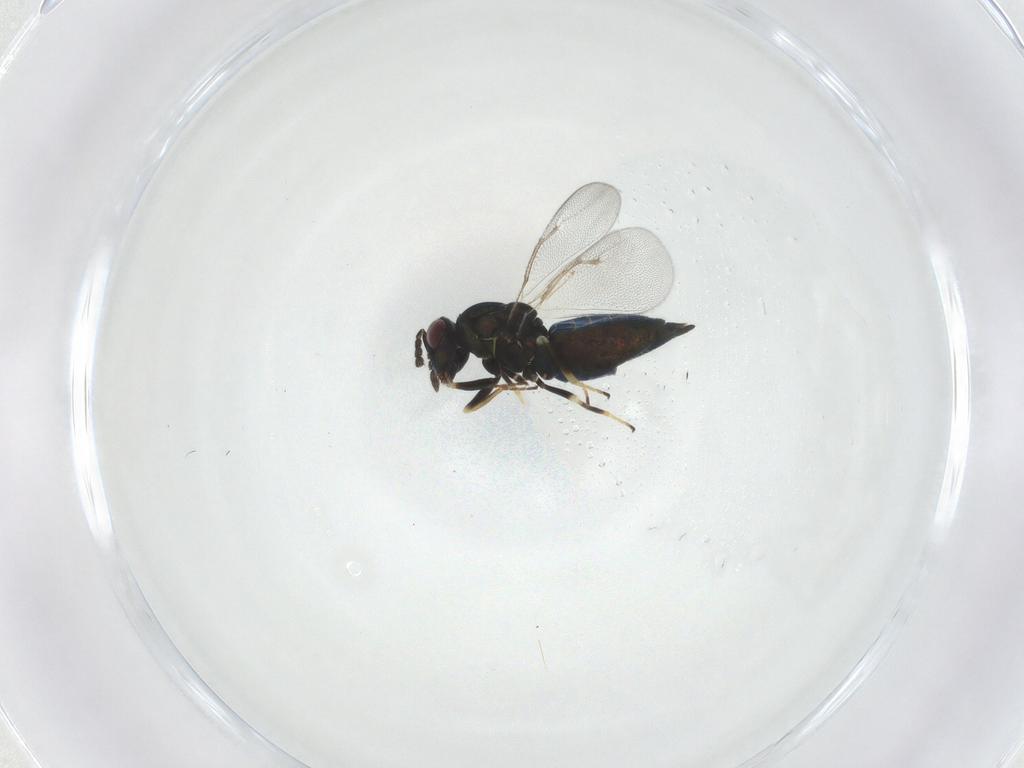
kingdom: Animalia
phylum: Arthropoda
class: Insecta
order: Hymenoptera
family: Eulophidae
